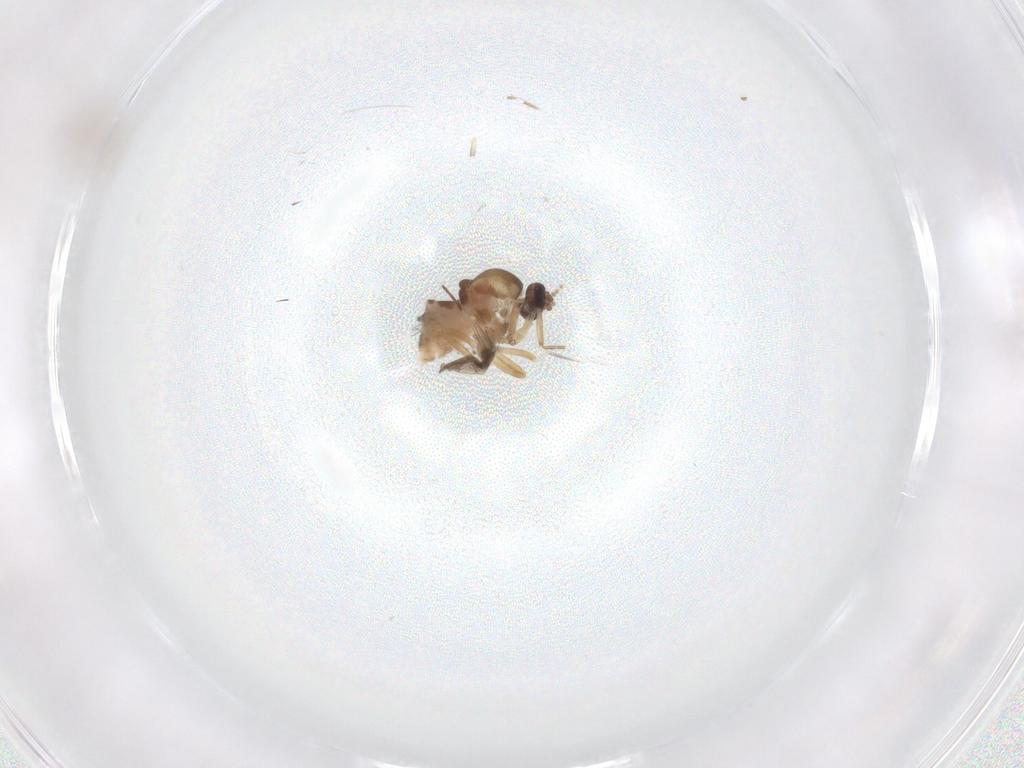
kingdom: Animalia
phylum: Arthropoda
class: Insecta
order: Diptera
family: Cecidomyiidae
